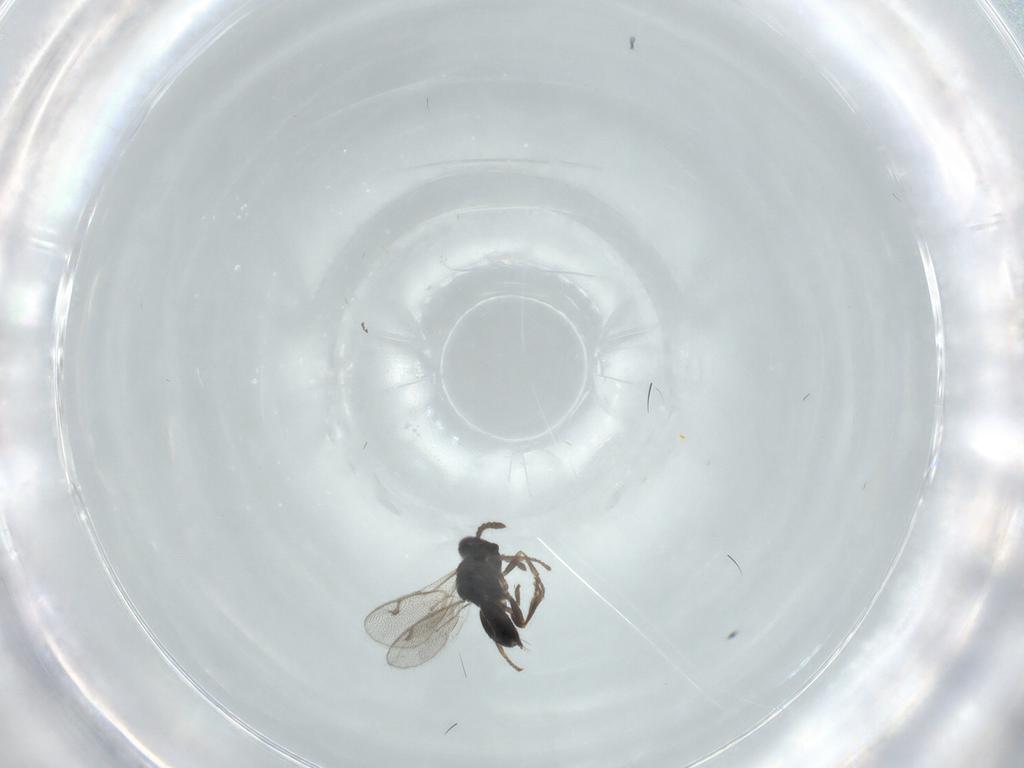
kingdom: Animalia
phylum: Arthropoda
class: Insecta
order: Hymenoptera
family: Pirenidae
